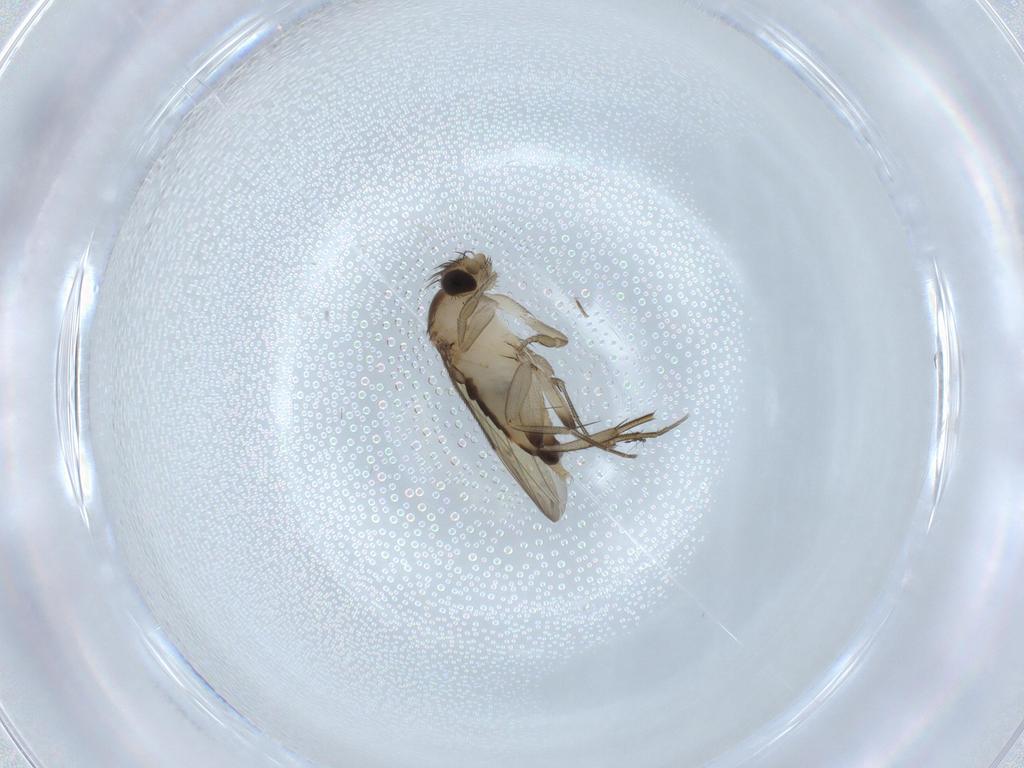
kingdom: Animalia
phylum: Arthropoda
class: Insecta
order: Diptera
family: Phoridae
